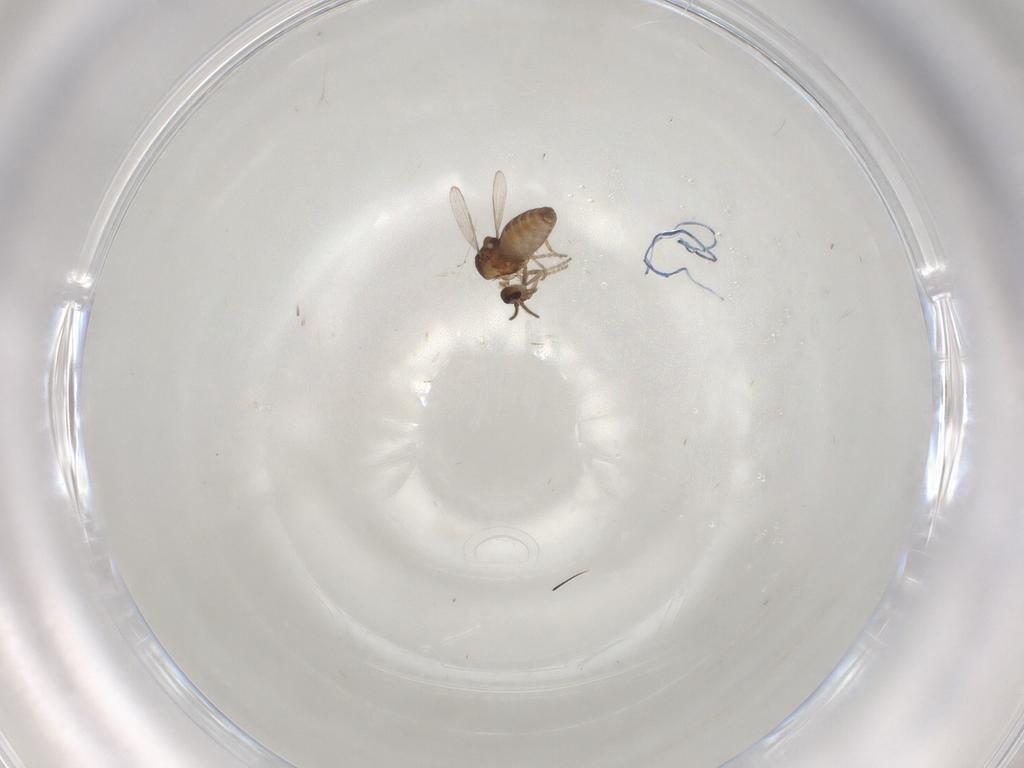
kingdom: Animalia
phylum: Arthropoda
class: Insecta
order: Diptera
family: Ceratopogonidae
